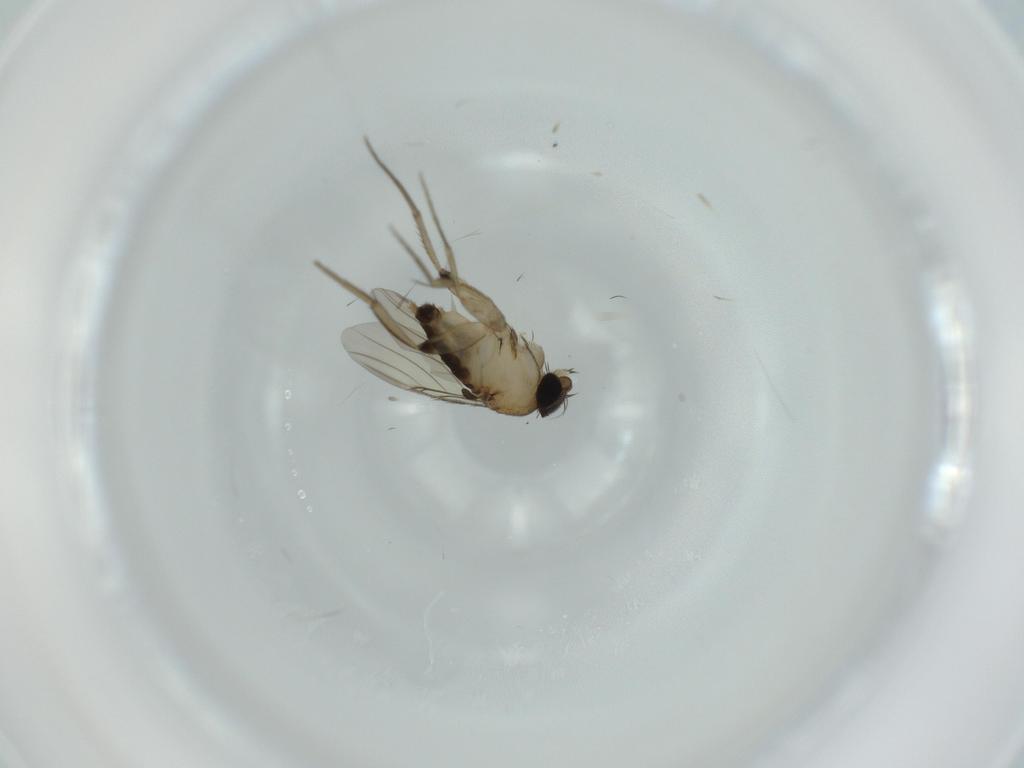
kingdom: Animalia
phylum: Arthropoda
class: Insecta
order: Diptera
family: Phoridae
